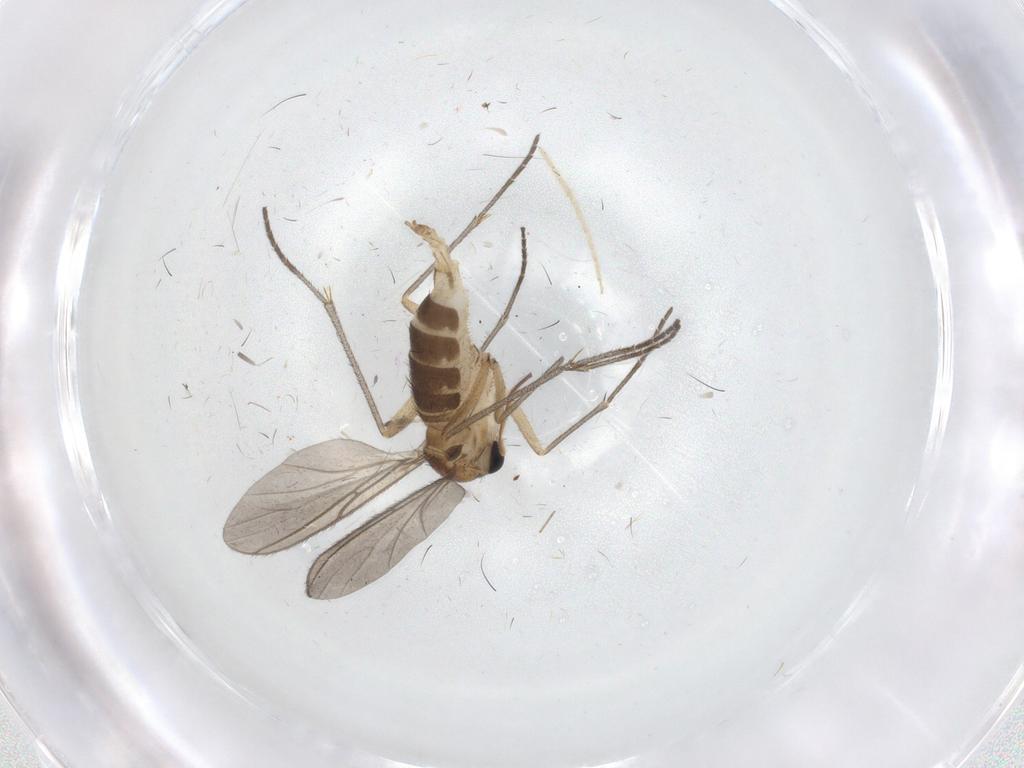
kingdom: Animalia
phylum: Arthropoda
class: Insecta
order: Diptera
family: Sciaridae
